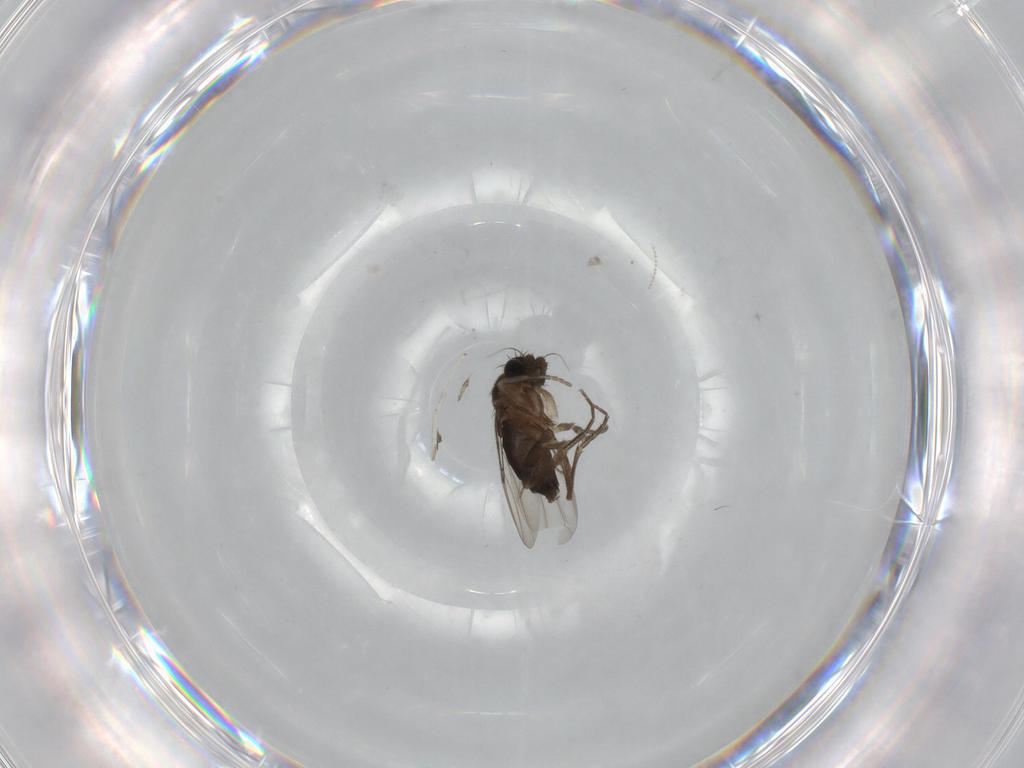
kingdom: Animalia
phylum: Arthropoda
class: Insecta
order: Diptera
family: Phoridae
